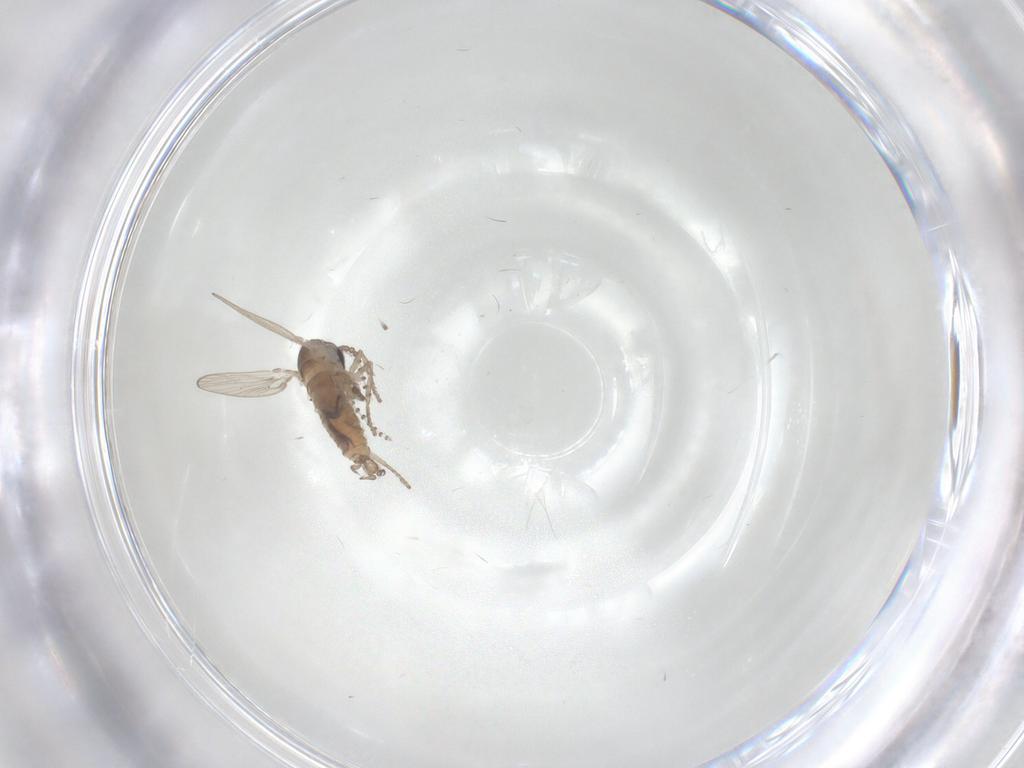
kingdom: Animalia
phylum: Arthropoda
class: Insecta
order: Diptera
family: Psychodidae
